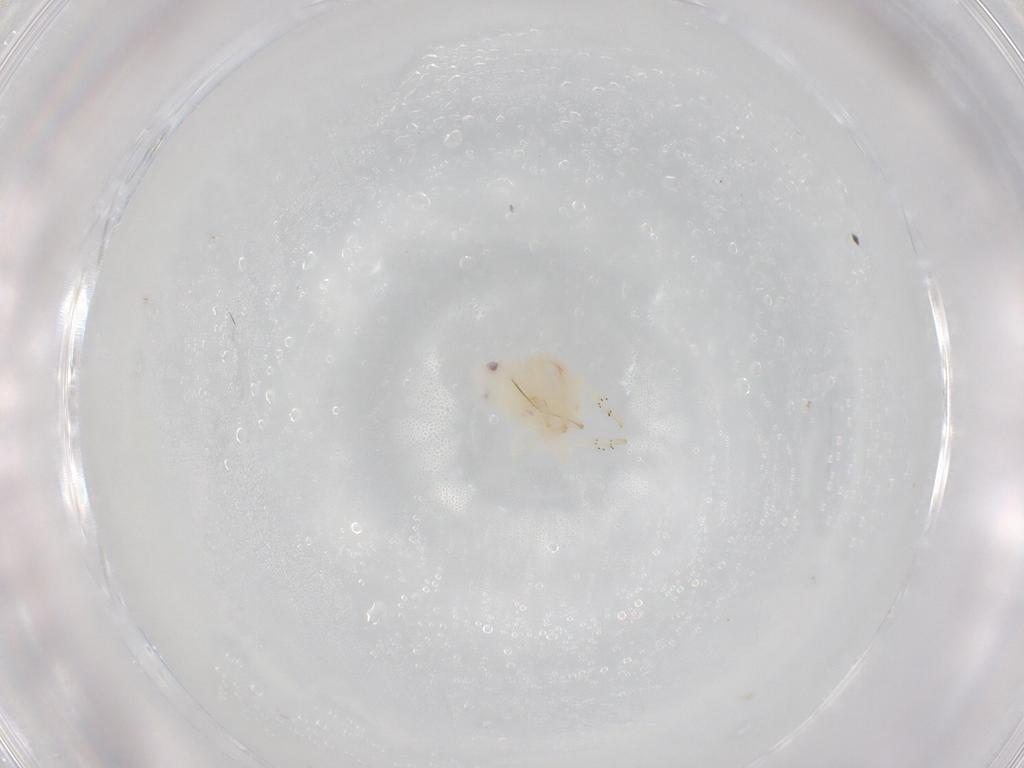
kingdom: Animalia
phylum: Arthropoda
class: Insecta
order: Hemiptera
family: Ricaniidae
